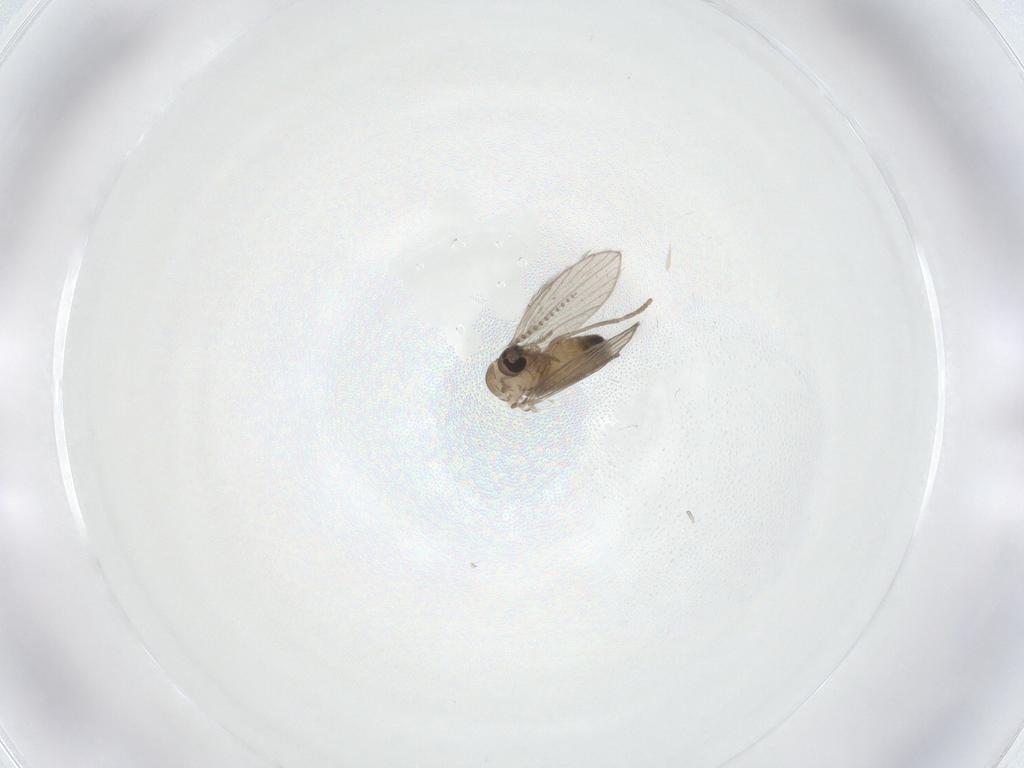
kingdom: Animalia
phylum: Arthropoda
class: Insecta
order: Diptera
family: Psychodidae
